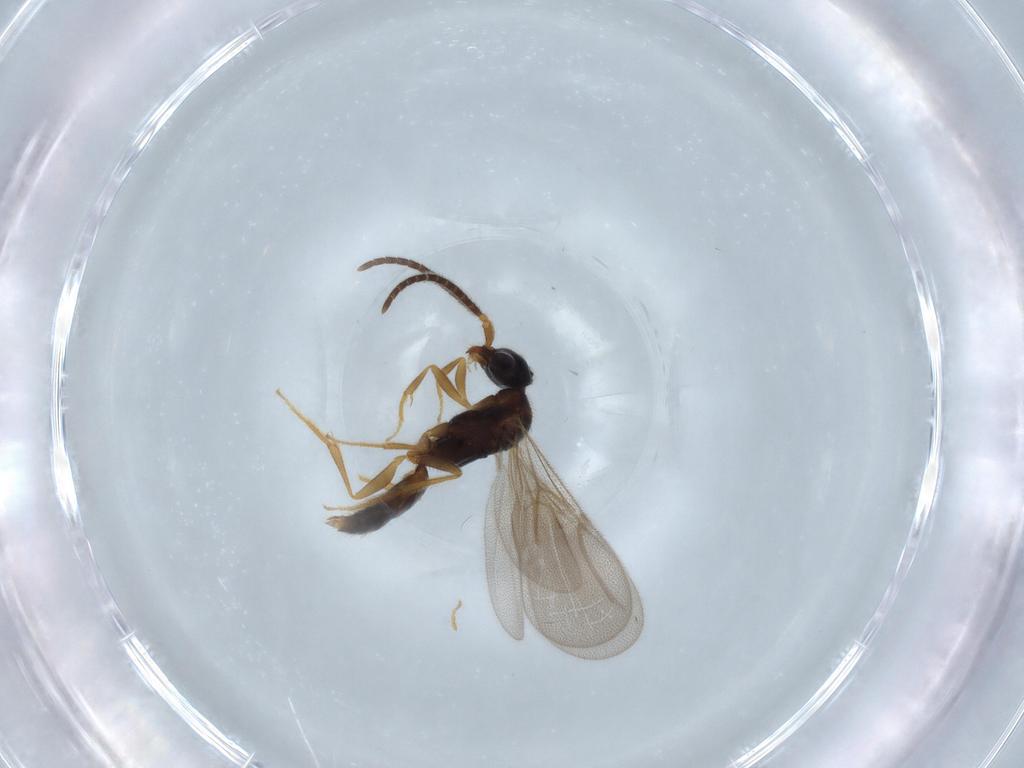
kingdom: Animalia
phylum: Arthropoda
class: Insecta
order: Hymenoptera
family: Bethylidae
